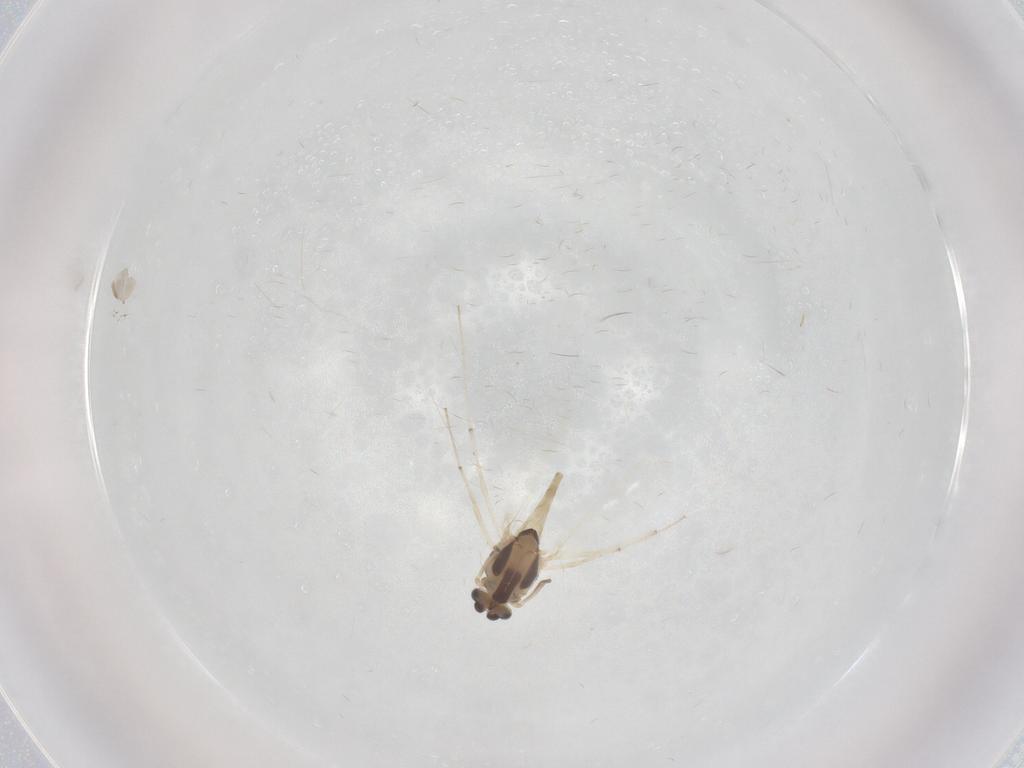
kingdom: Animalia
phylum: Arthropoda
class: Insecta
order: Diptera
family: Chironomidae
